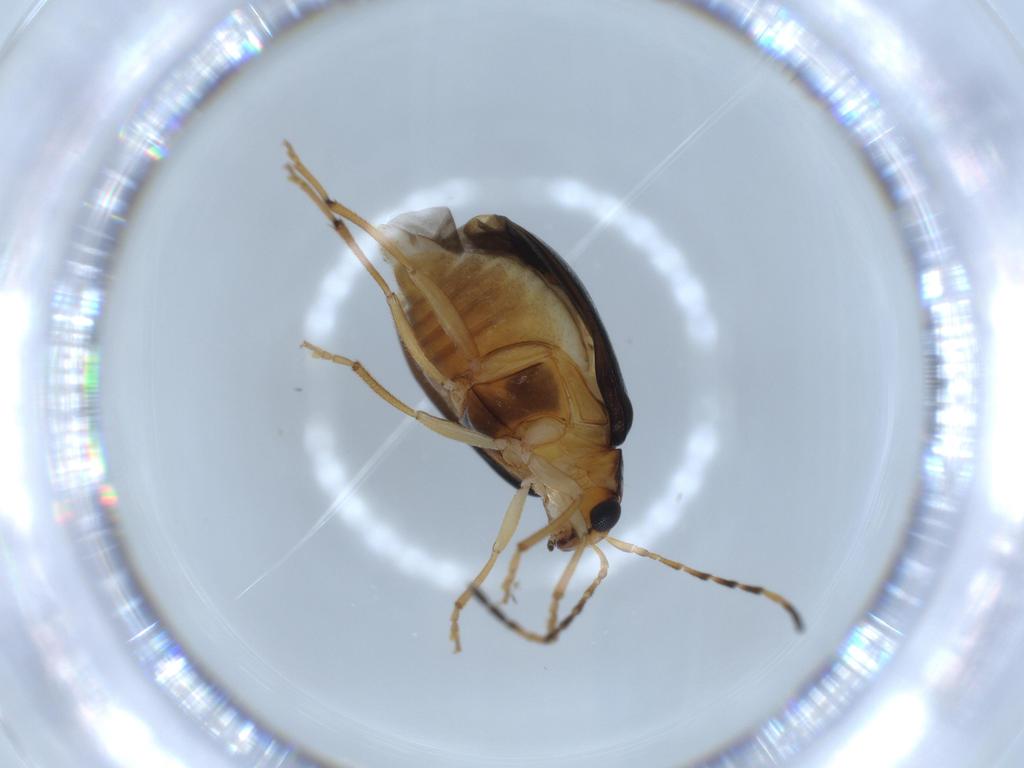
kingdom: Animalia
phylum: Arthropoda
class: Insecta
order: Coleoptera
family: Chrysomelidae
